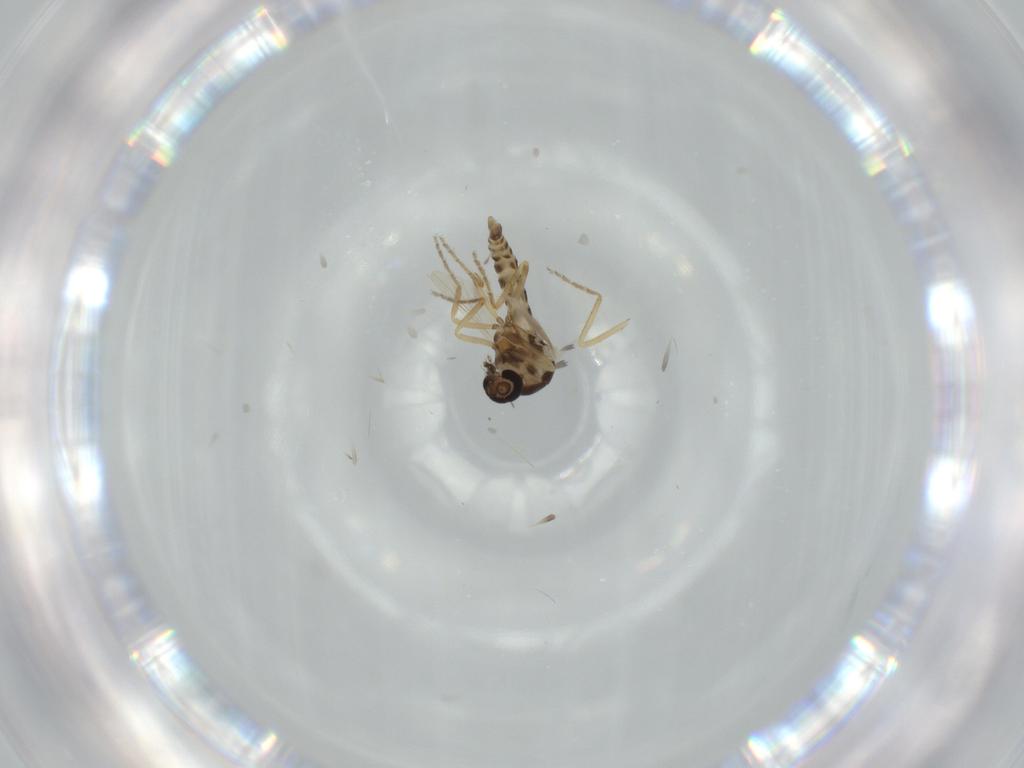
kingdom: Animalia
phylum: Arthropoda
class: Insecta
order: Diptera
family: Ceratopogonidae
